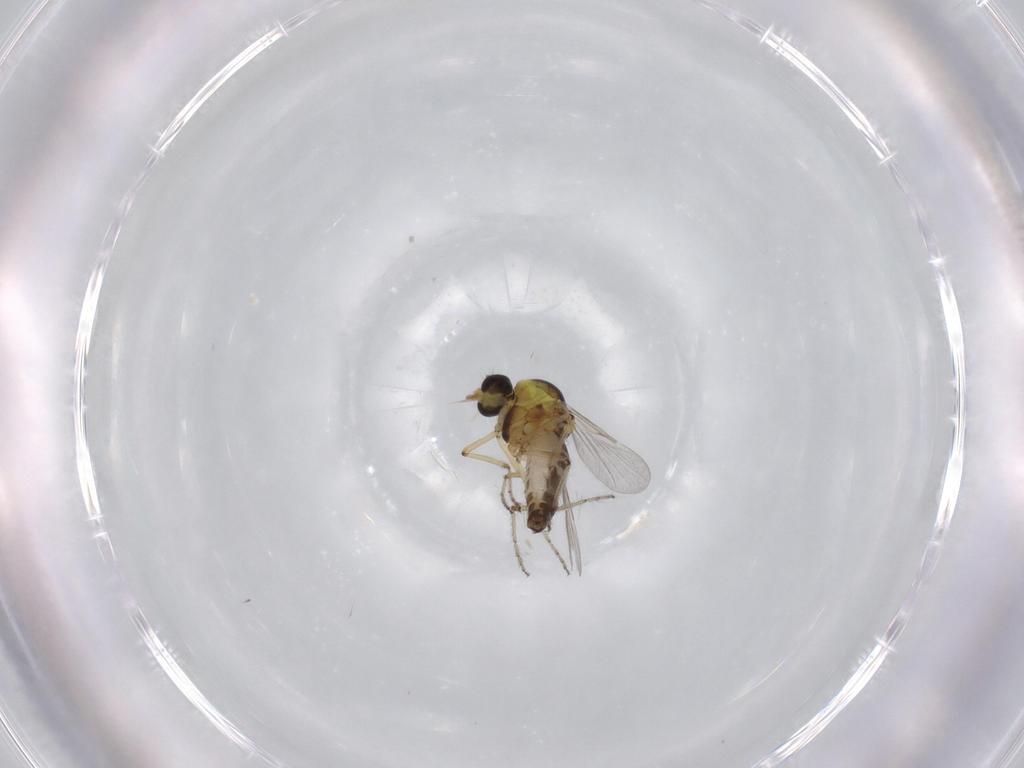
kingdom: Animalia
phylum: Arthropoda
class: Insecta
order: Diptera
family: Ceratopogonidae
